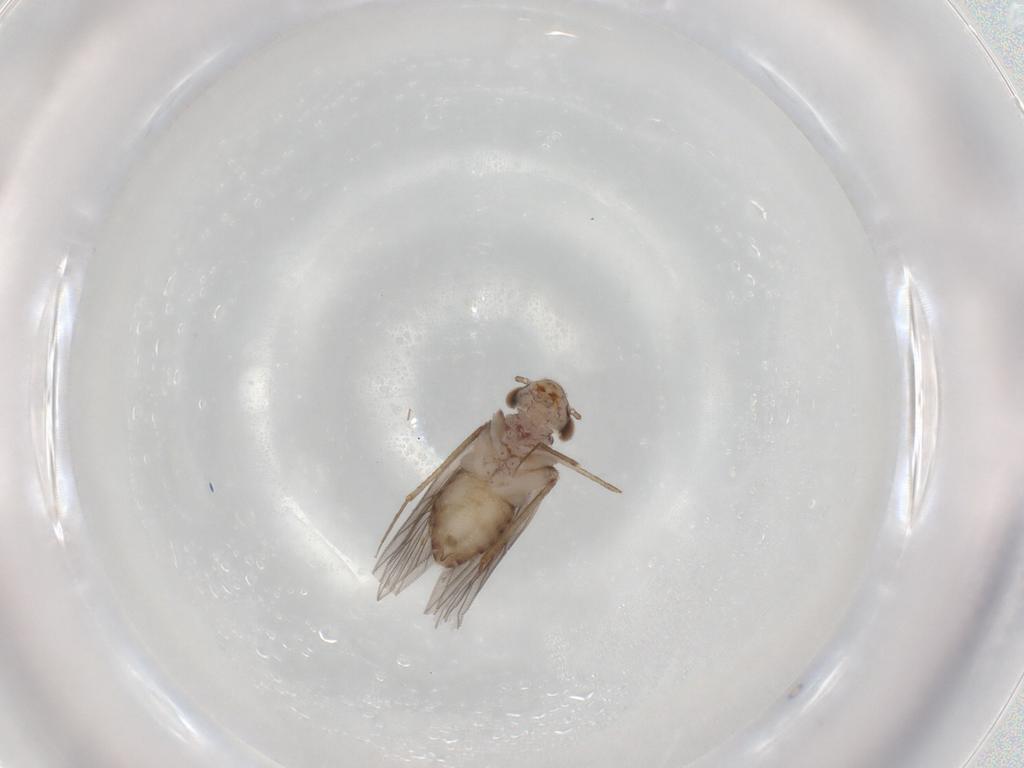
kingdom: Animalia
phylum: Arthropoda
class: Insecta
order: Psocodea
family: Lepidopsocidae
